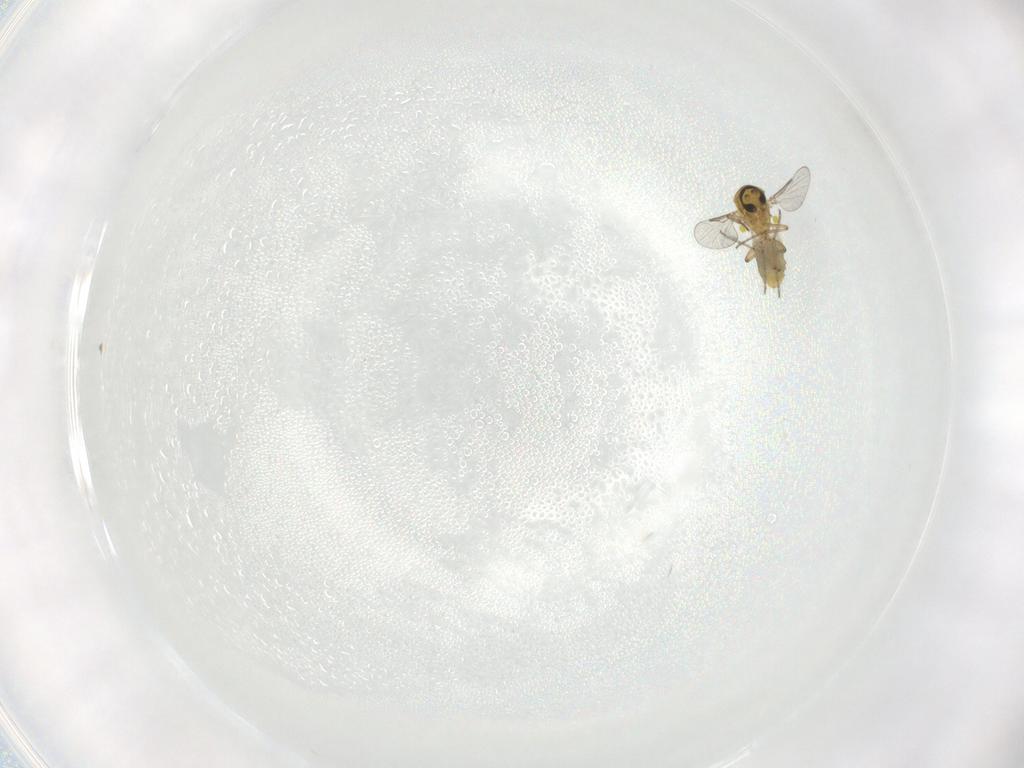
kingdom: Animalia
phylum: Arthropoda
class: Insecta
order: Diptera
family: Ceratopogonidae
